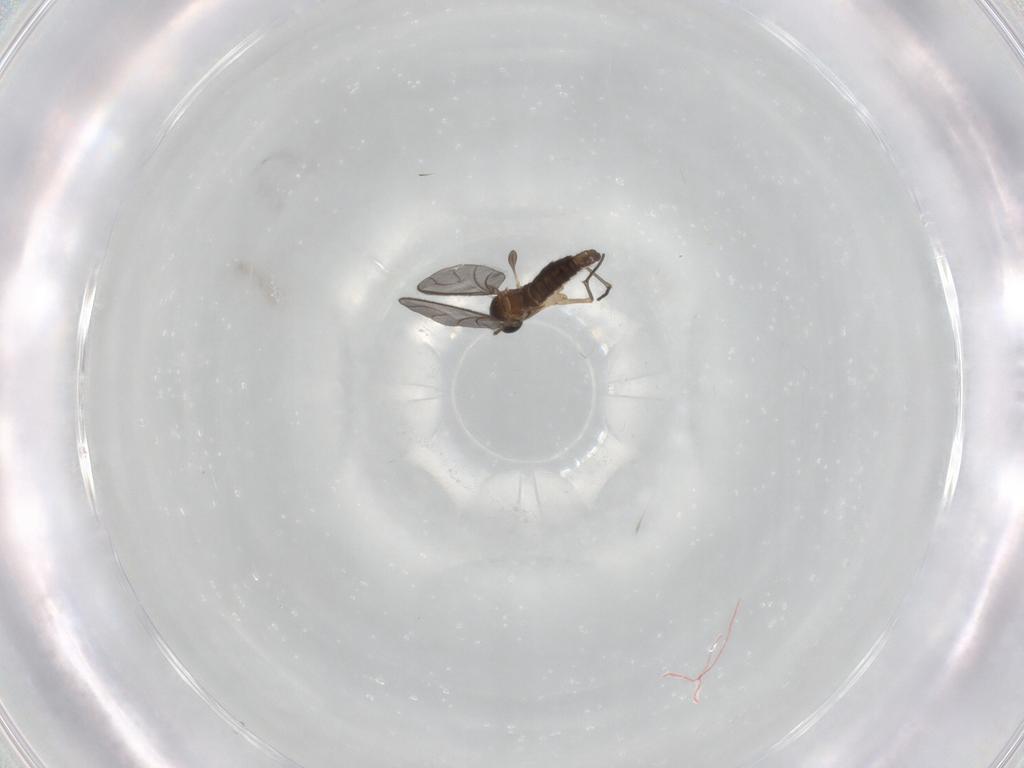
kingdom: Animalia
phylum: Arthropoda
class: Insecta
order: Diptera
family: Sciaridae
